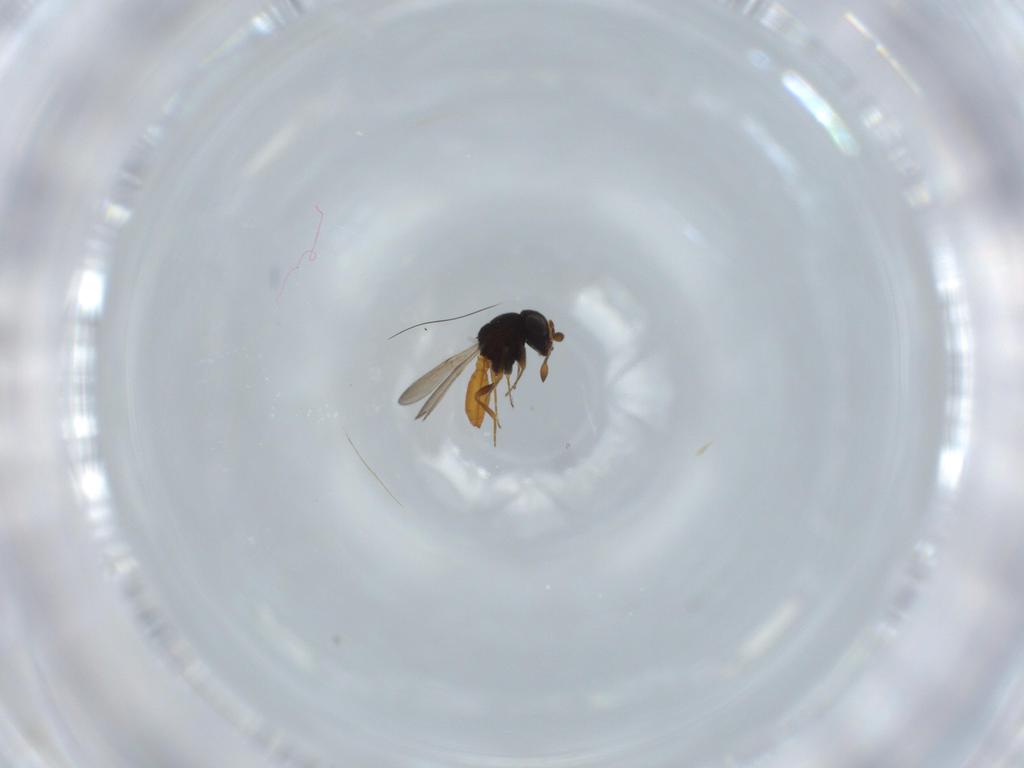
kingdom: Animalia
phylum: Arthropoda
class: Insecta
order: Hymenoptera
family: Scelionidae
